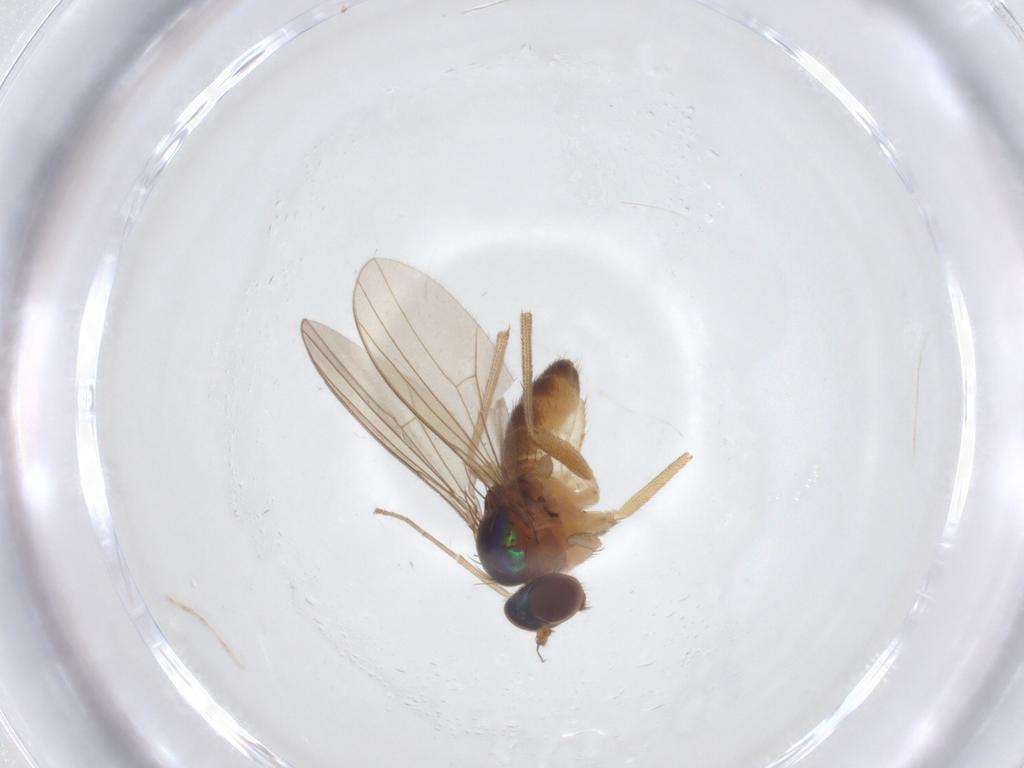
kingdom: Animalia
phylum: Arthropoda
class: Insecta
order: Diptera
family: Dolichopodidae
